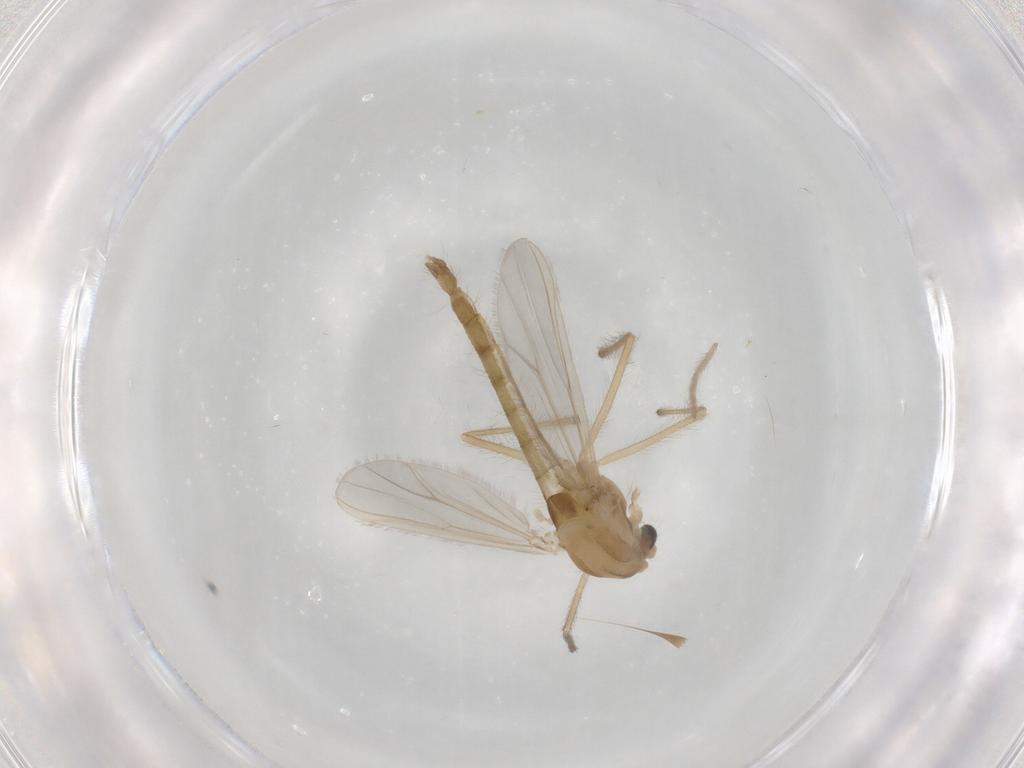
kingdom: Animalia
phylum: Arthropoda
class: Insecta
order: Diptera
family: Chironomidae
